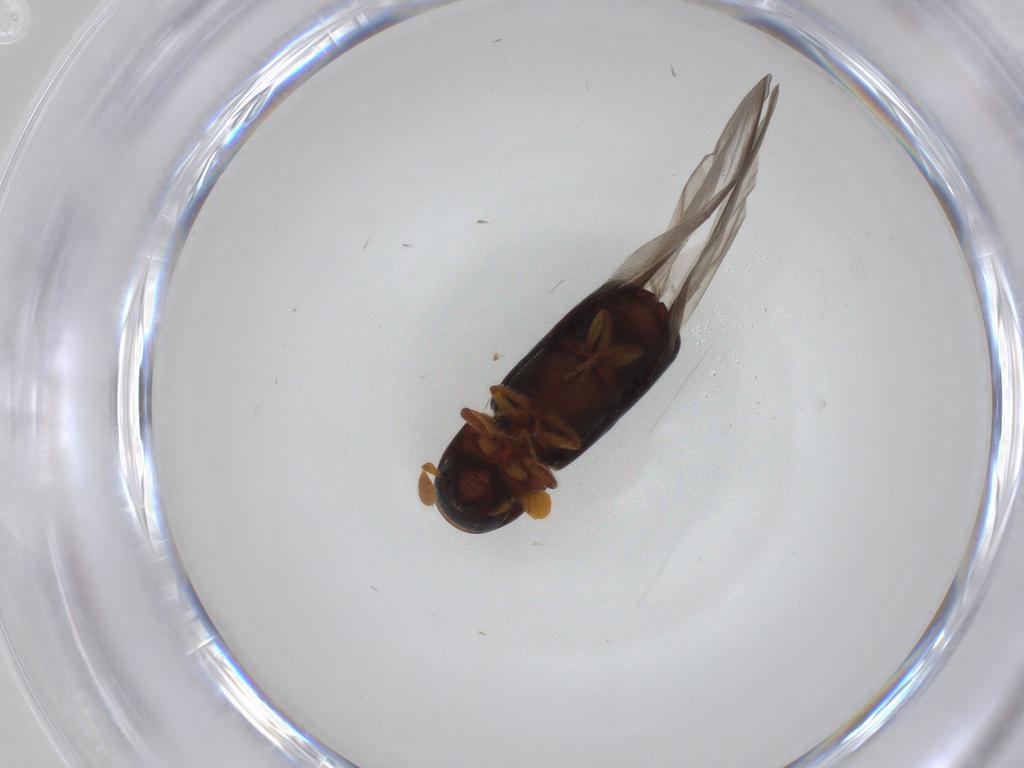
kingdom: Animalia
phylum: Arthropoda
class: Insecta
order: Coleoptera
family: Curculionidae
